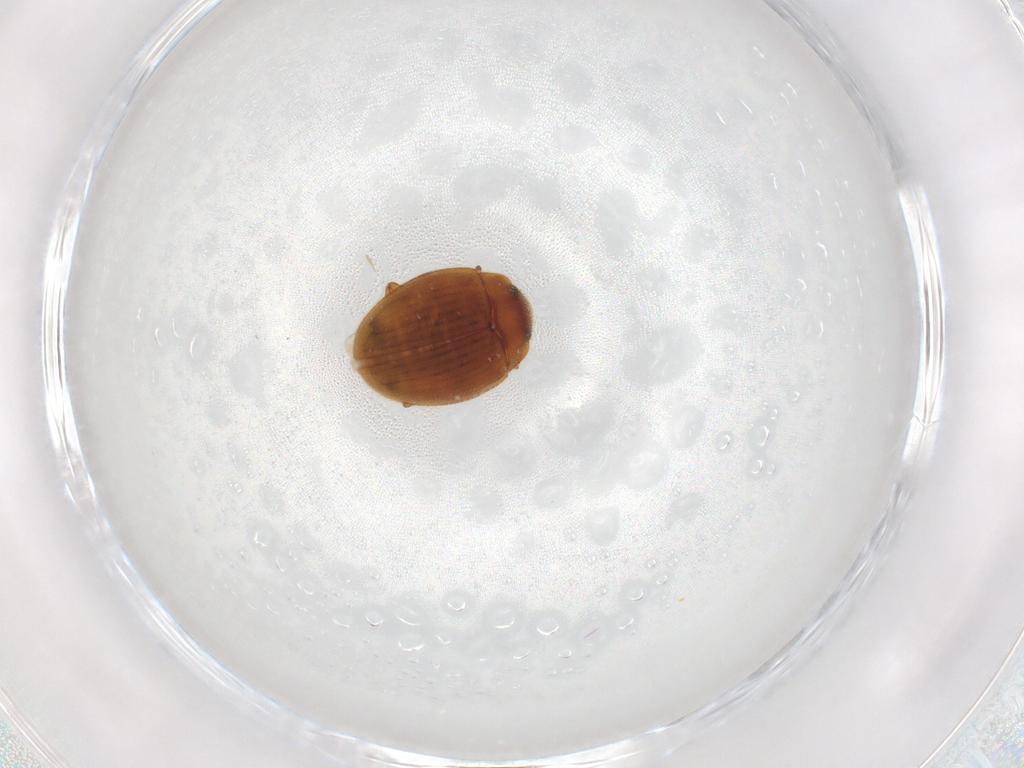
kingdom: Animalia
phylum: Arthropoda
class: Insecta
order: Coleoptera
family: Euxestidae
